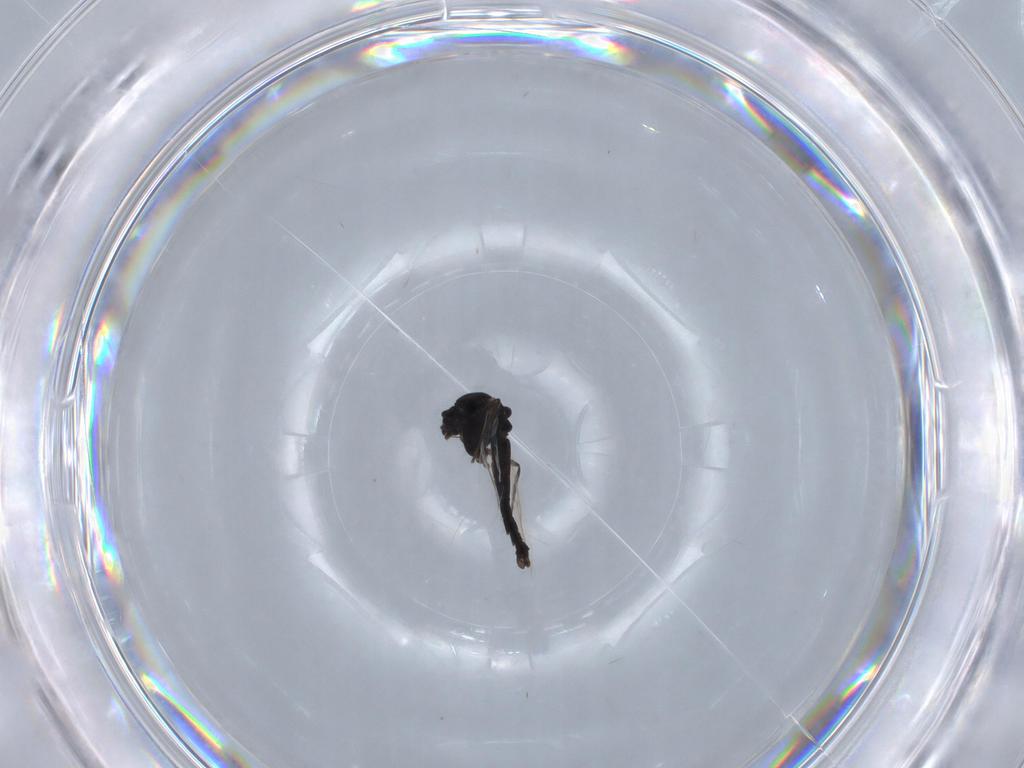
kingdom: Animalia
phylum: Arthropoda
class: Insecta
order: Diptera
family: Chironomidae
